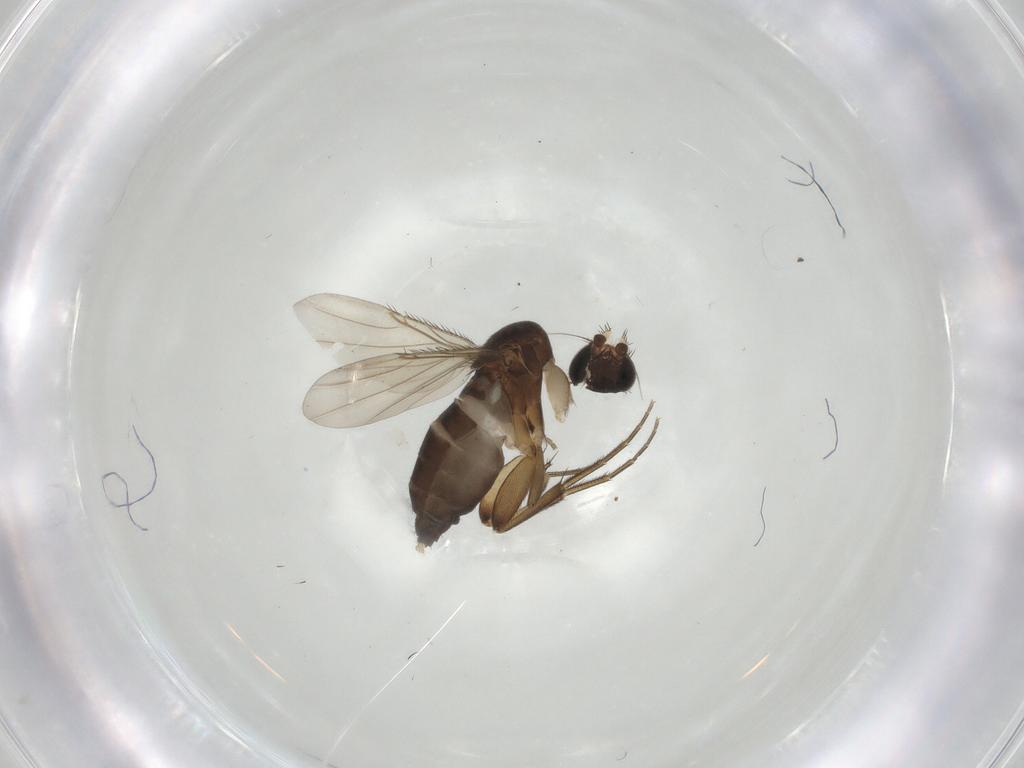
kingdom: Animalia
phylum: Arthropoda
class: Insecta
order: Diptera
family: Phoridae
